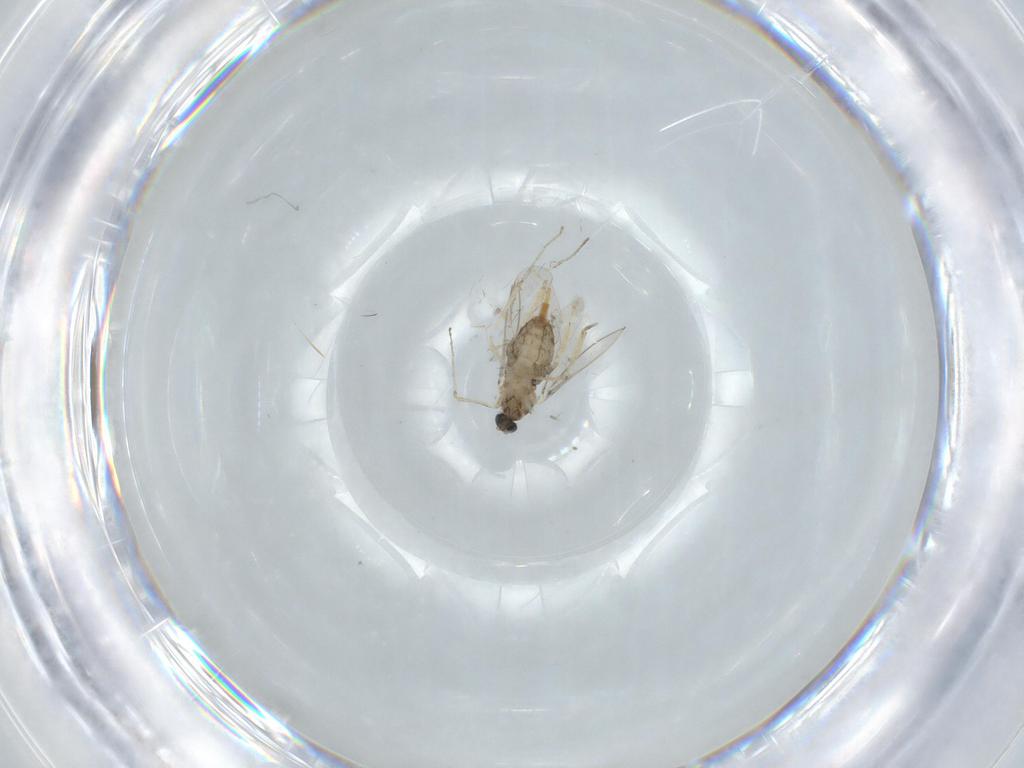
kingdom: Animalia
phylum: Arthropoda
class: Insecta
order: Diptera
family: Cecidomyiidae
